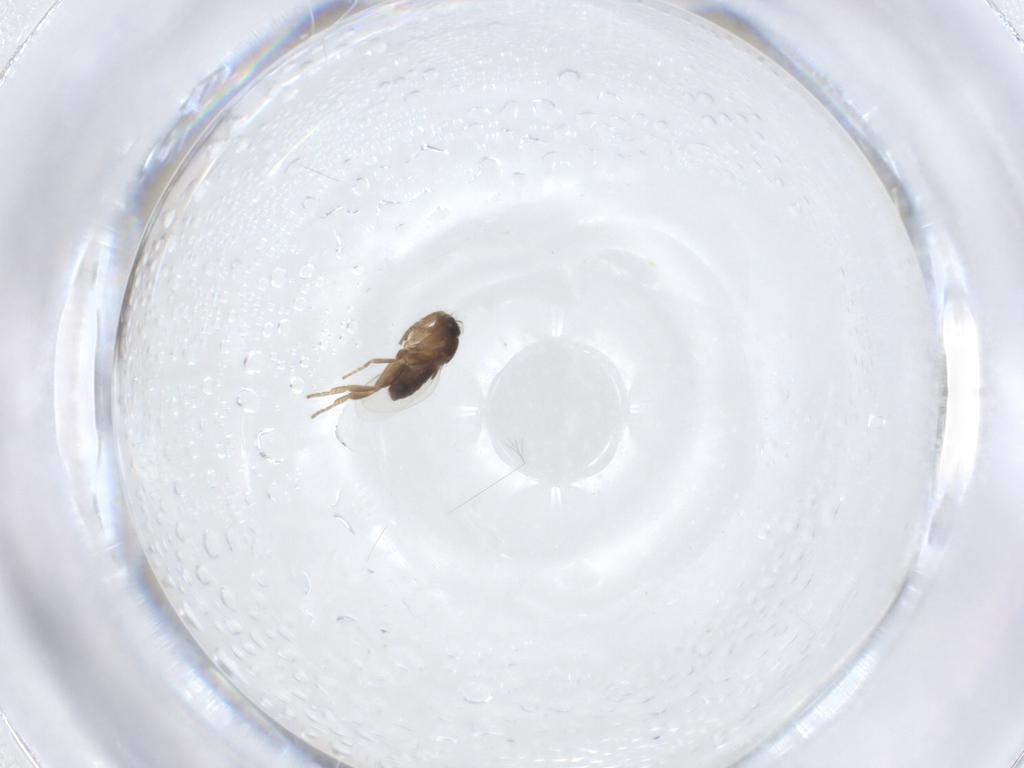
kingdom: Animalia
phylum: Arthropoda
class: Insecta
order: Diptera
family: Phoridae
